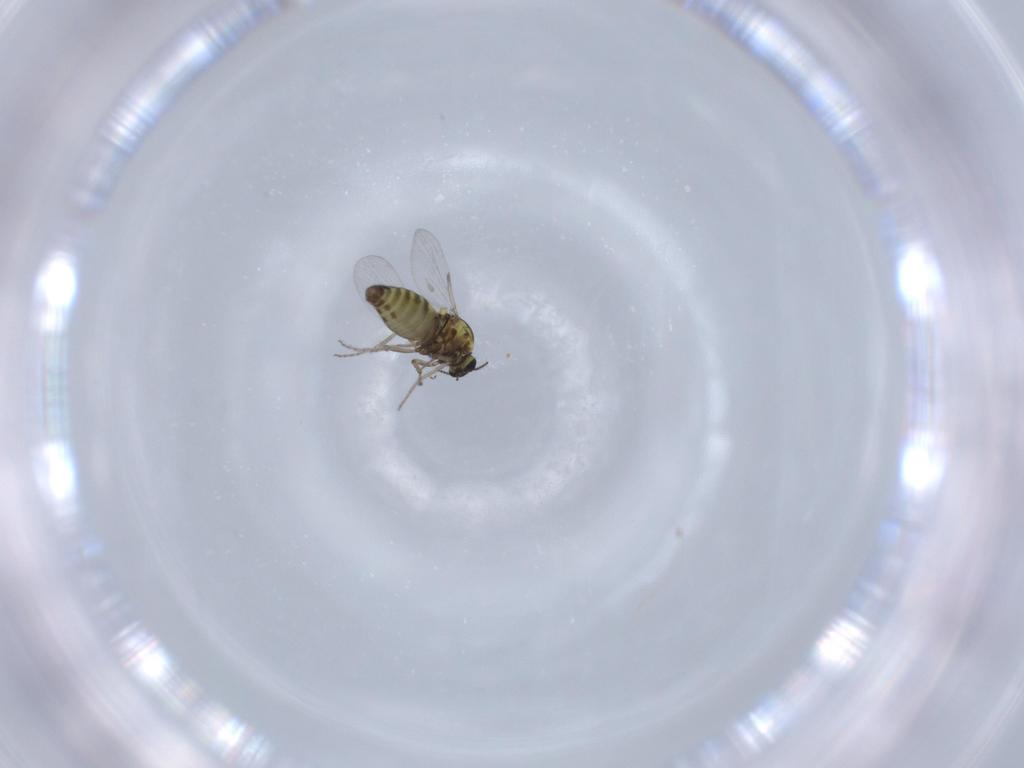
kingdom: Animalia
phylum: Arthropoda
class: Insecta
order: Diptera
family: Ceratopogonidae
